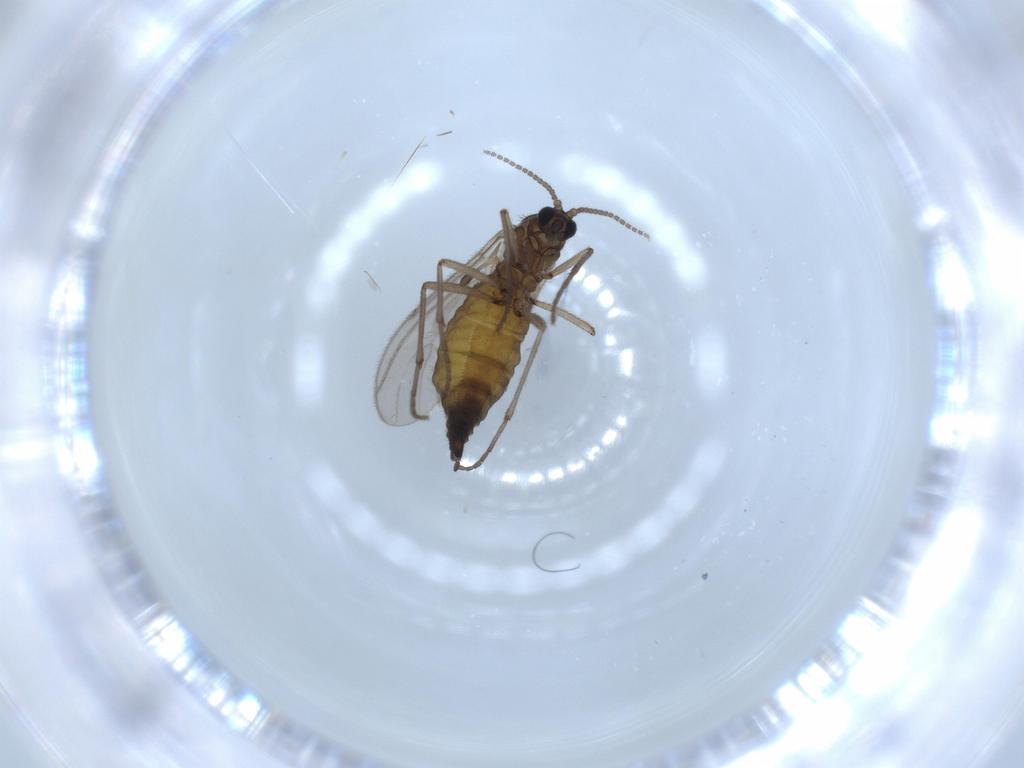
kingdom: Animalia
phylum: Arthropoda
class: Insecta
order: Diptera
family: Sciaridae
